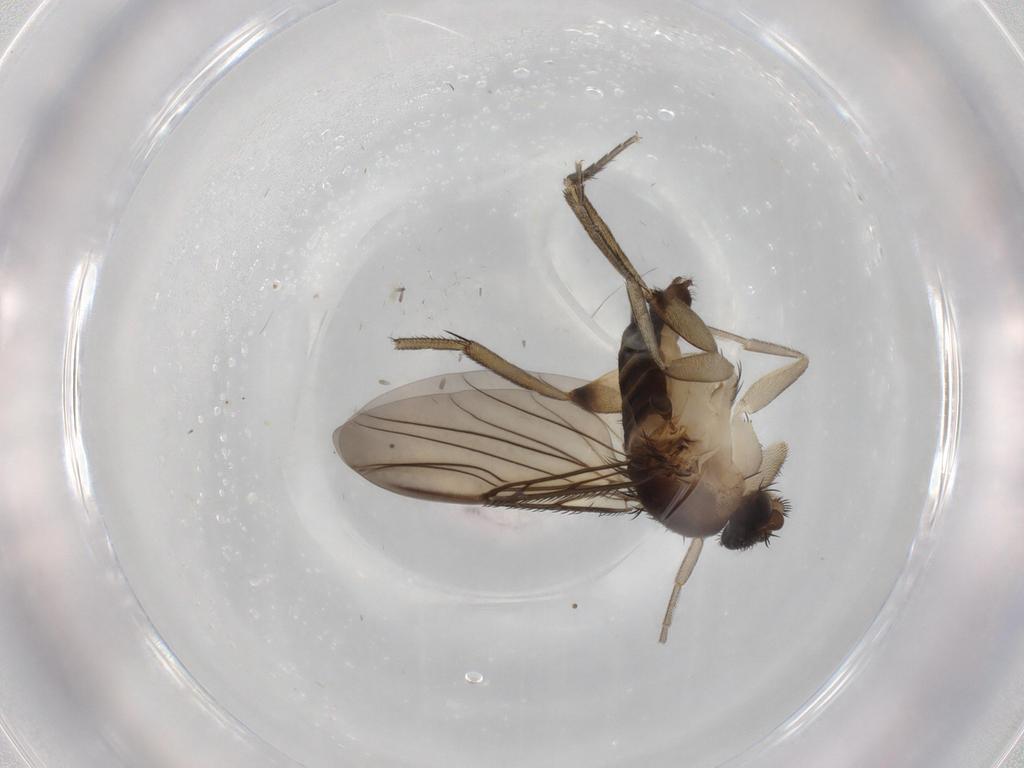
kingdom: Animalia
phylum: Arthropoda
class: Insecta
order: Diptera
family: Phoridae
